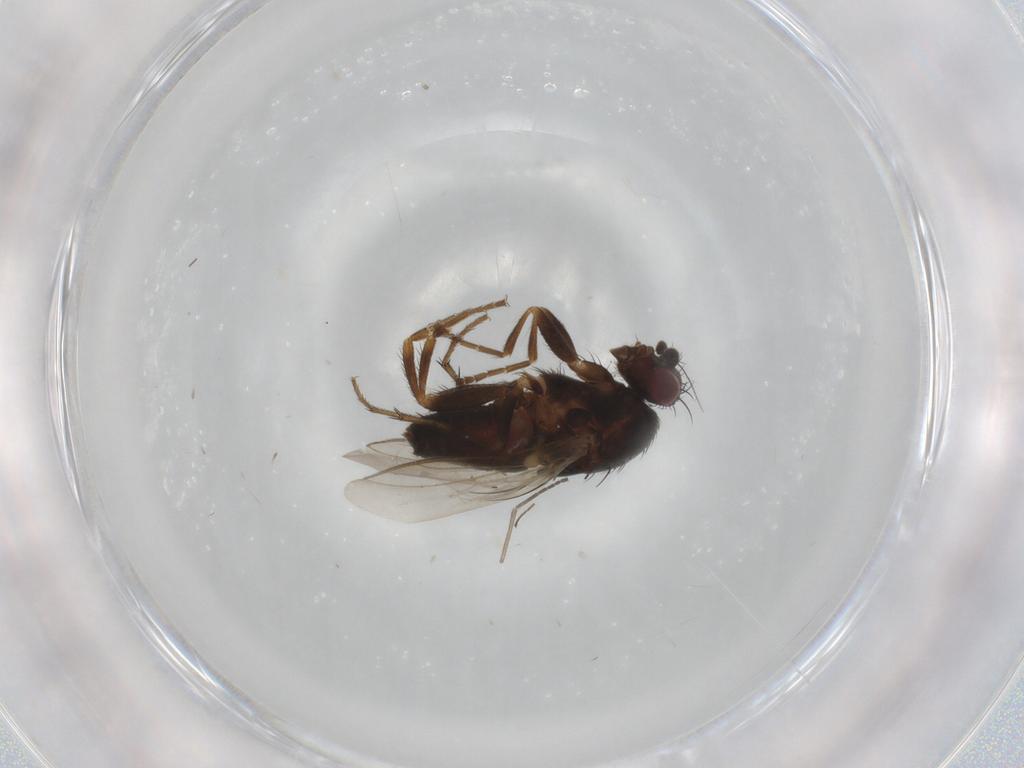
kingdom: Animalia
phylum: Arthropoda
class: Insecta
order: Diptera
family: Sphaeroceridae
